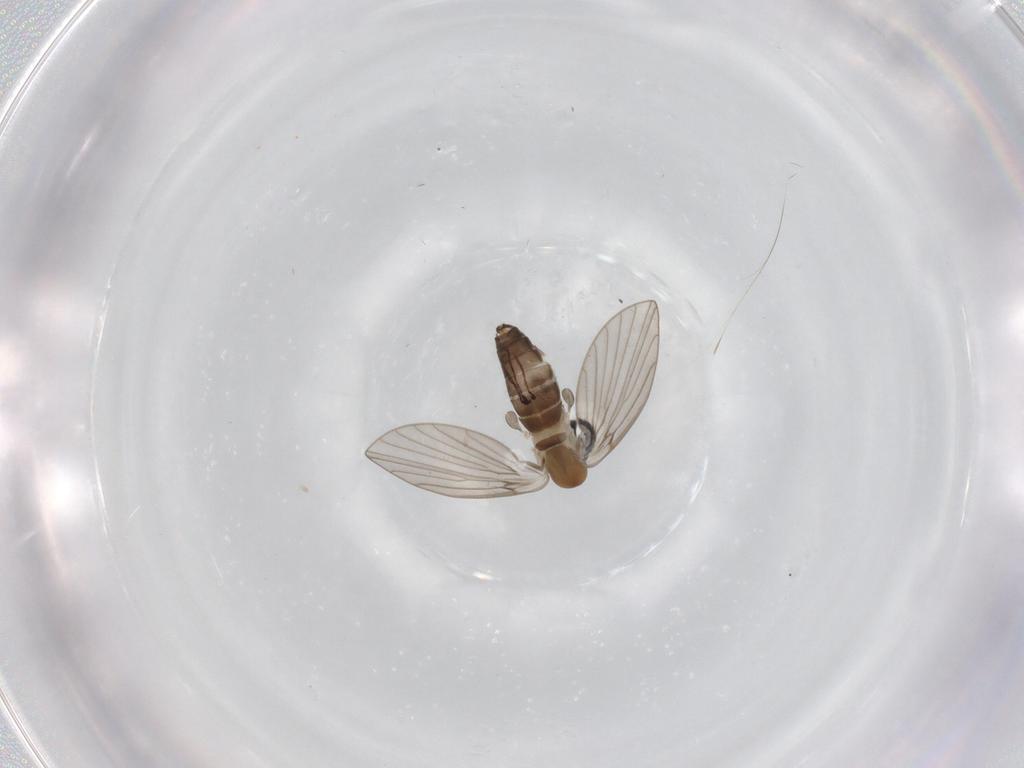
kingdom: Animalia
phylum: Arthropoda
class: Insecta
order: Diptera
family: Psychodidae
